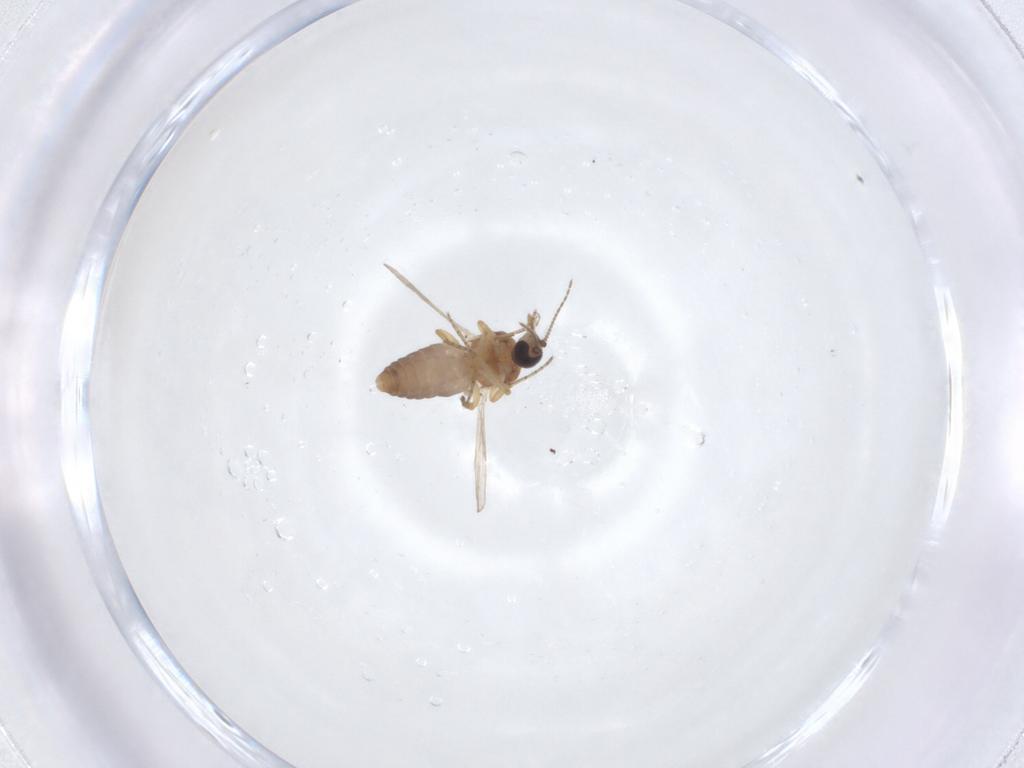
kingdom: Animalia
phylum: Arthropoda
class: Insecta
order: Diptera
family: Ceratopogonidae
